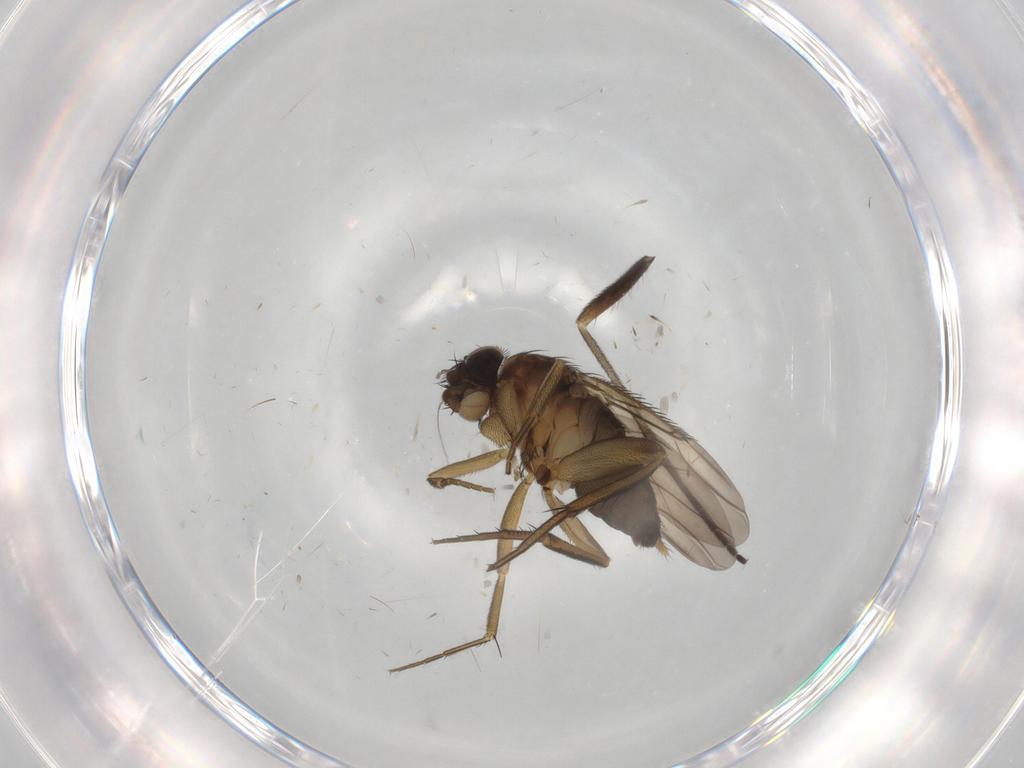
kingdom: Animalia
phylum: Arthropoda
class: Insecta
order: Diptera
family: Phoridae
